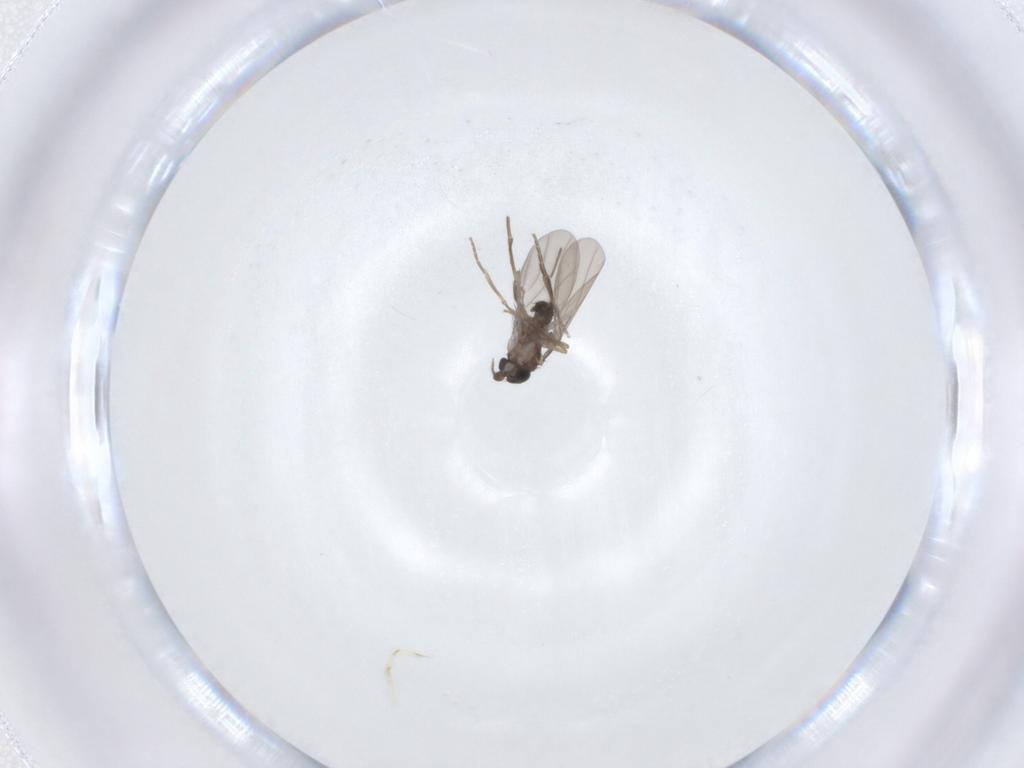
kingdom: Animalia
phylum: Arthropoda
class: Insecta
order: Diptera
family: Phoridae
